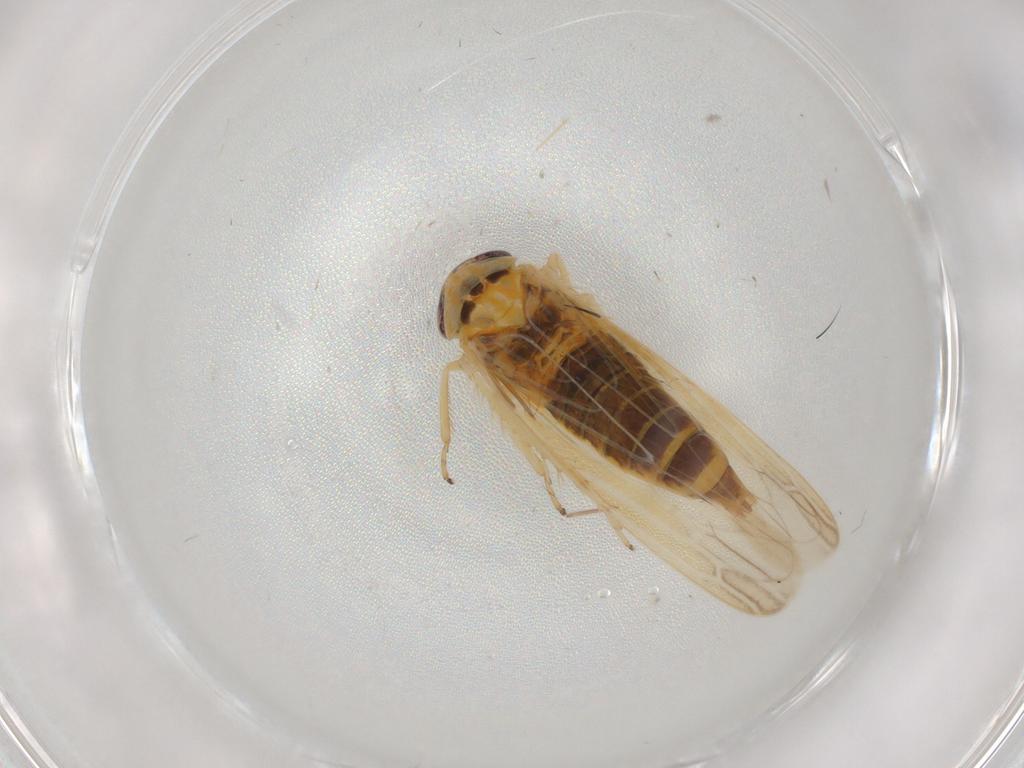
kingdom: Animalia
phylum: Arthropoda
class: Insecta
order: Hemiptera
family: Cicadellidae
